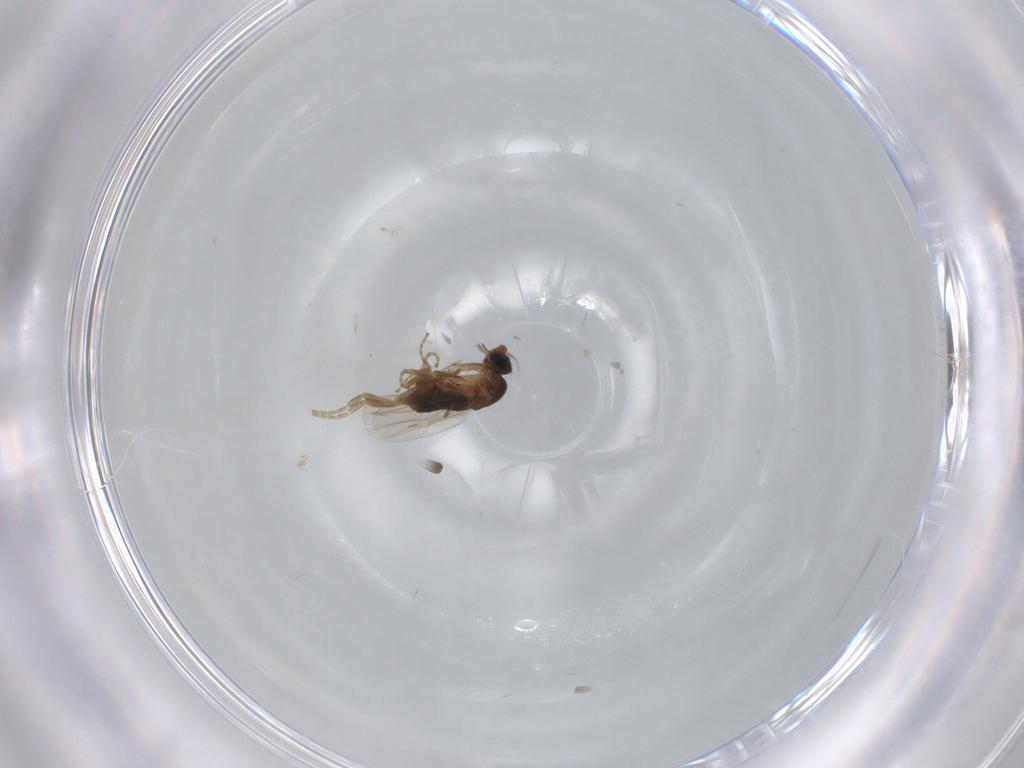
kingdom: Animalia
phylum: Arthropoda
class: Insecta
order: Diptera
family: Phoridae
